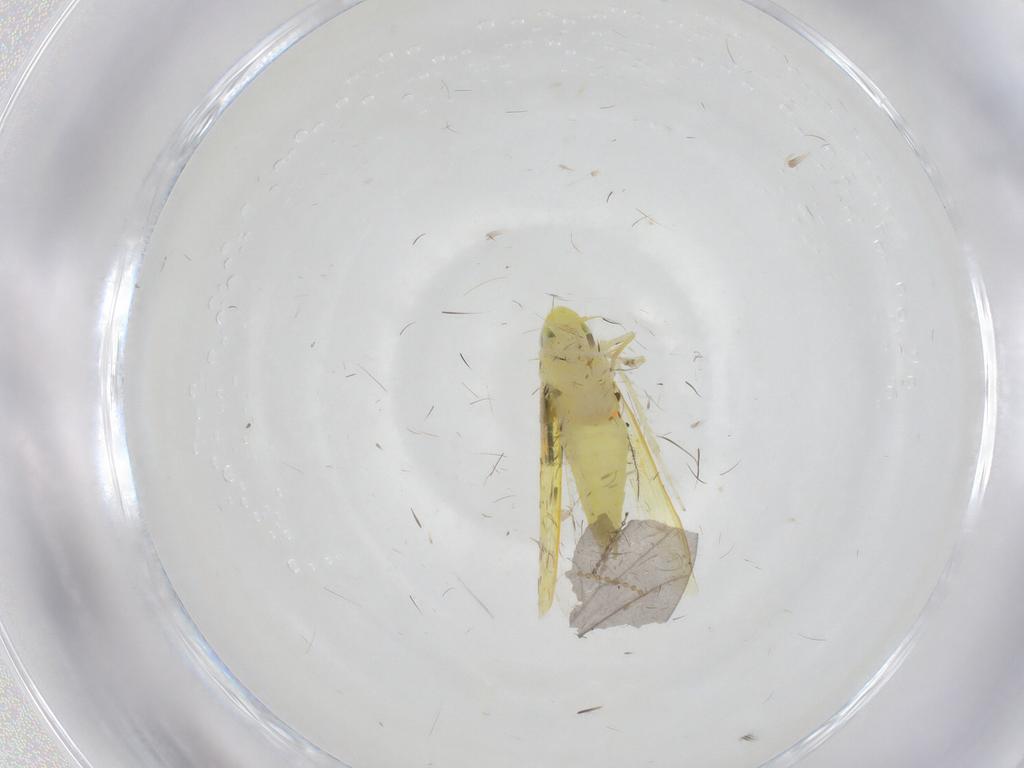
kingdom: Animalia
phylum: Arthropoda
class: Insecta
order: Hemiptera
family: Cicadellidae
